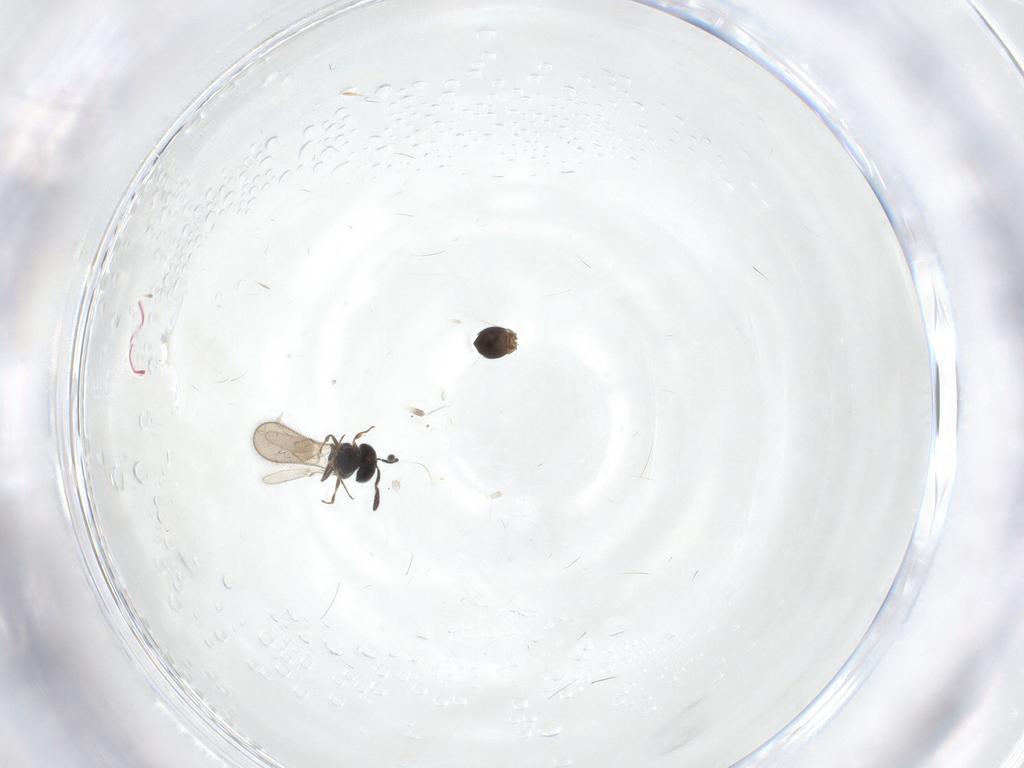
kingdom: Animalia
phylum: Arthropoda
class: Insecta
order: Hymenoptera
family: Scelionidae
